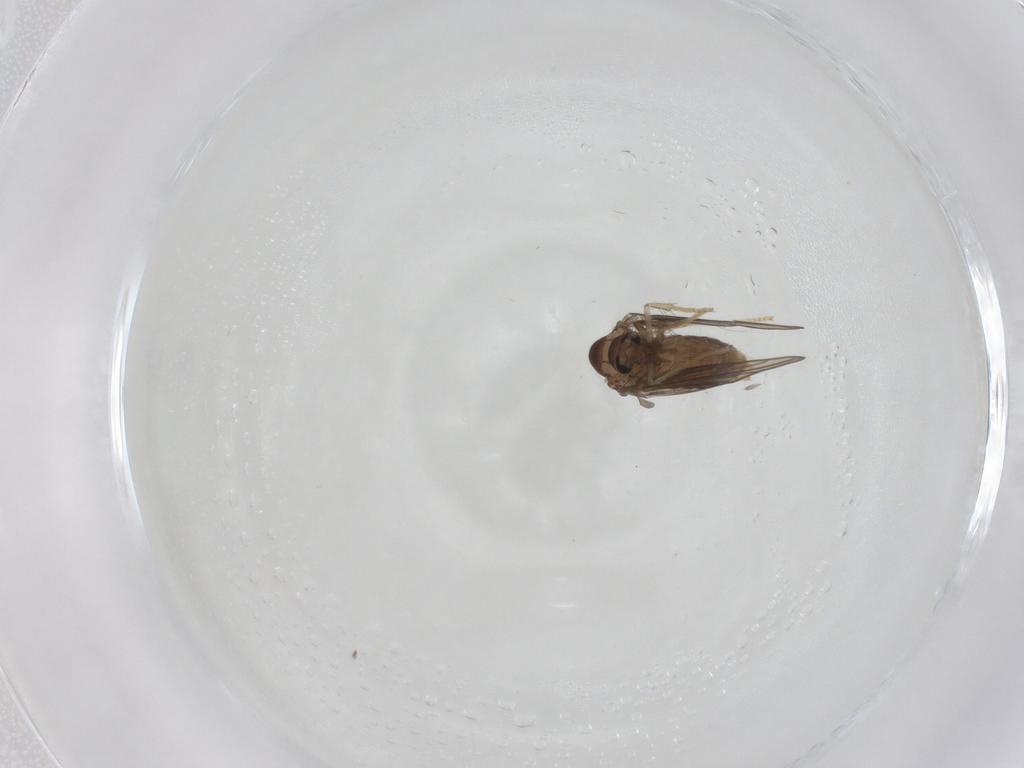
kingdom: Animalia
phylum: Arthropoda
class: Insecta
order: Diptera
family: Psychodidae
